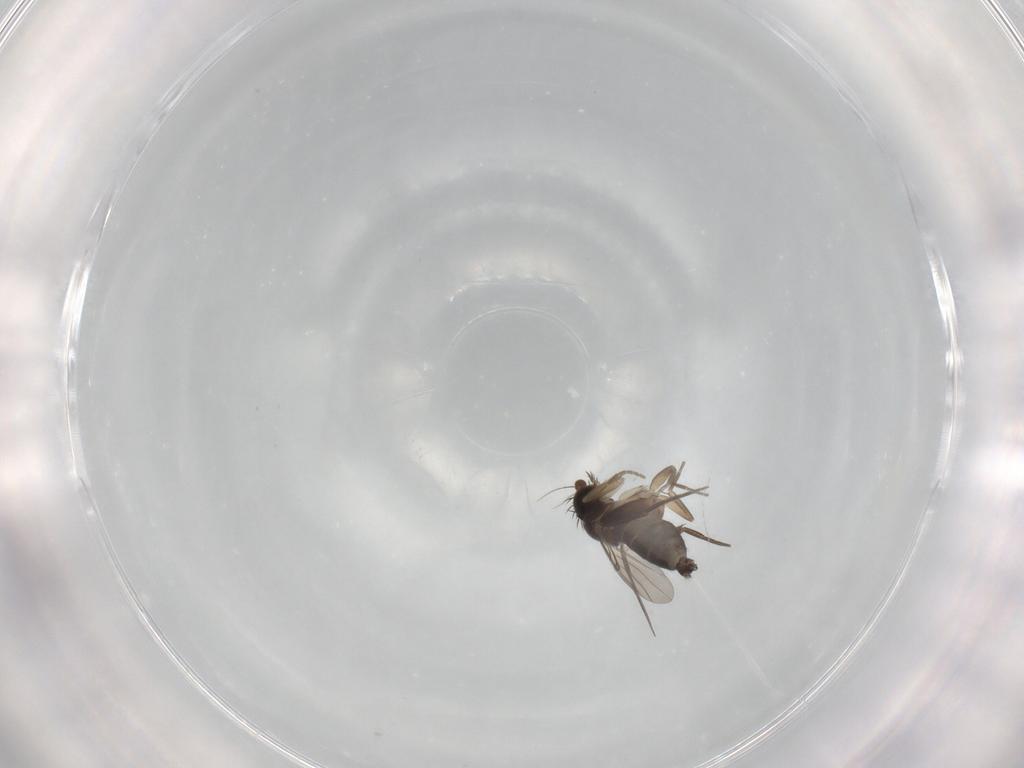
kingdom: Animalia
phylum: Arthropoda
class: Insecta
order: Diptera
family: Phoridae
